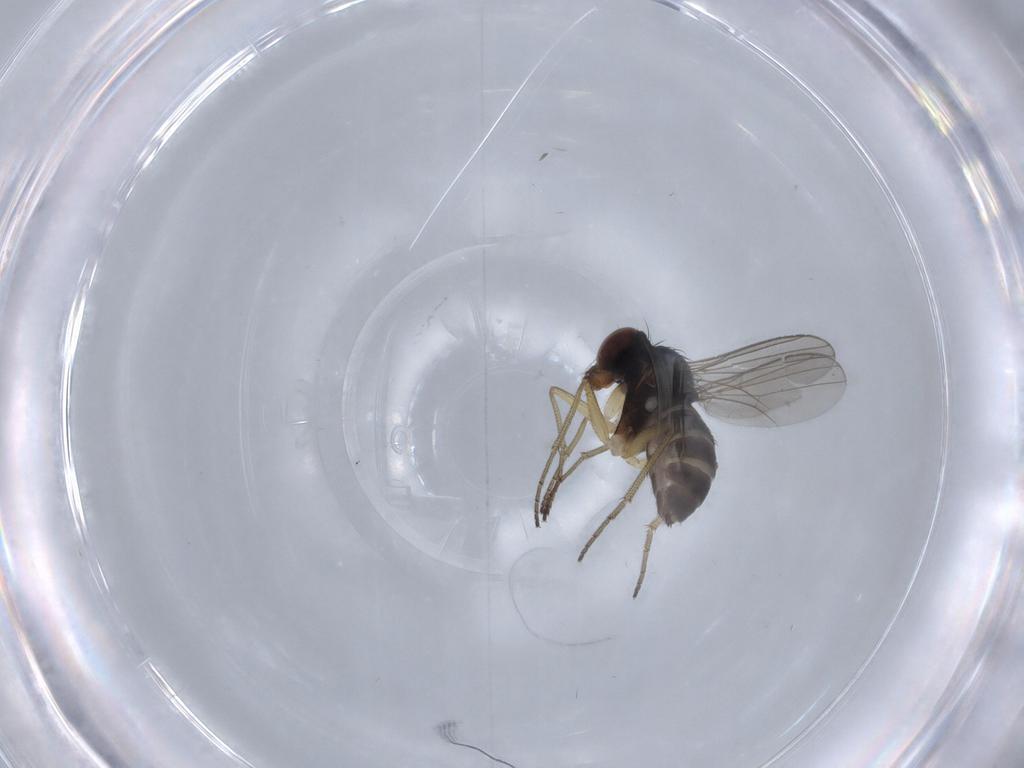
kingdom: Animalia
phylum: Arthropoda
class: Insecta
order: Diptera
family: Dolichopodidae
